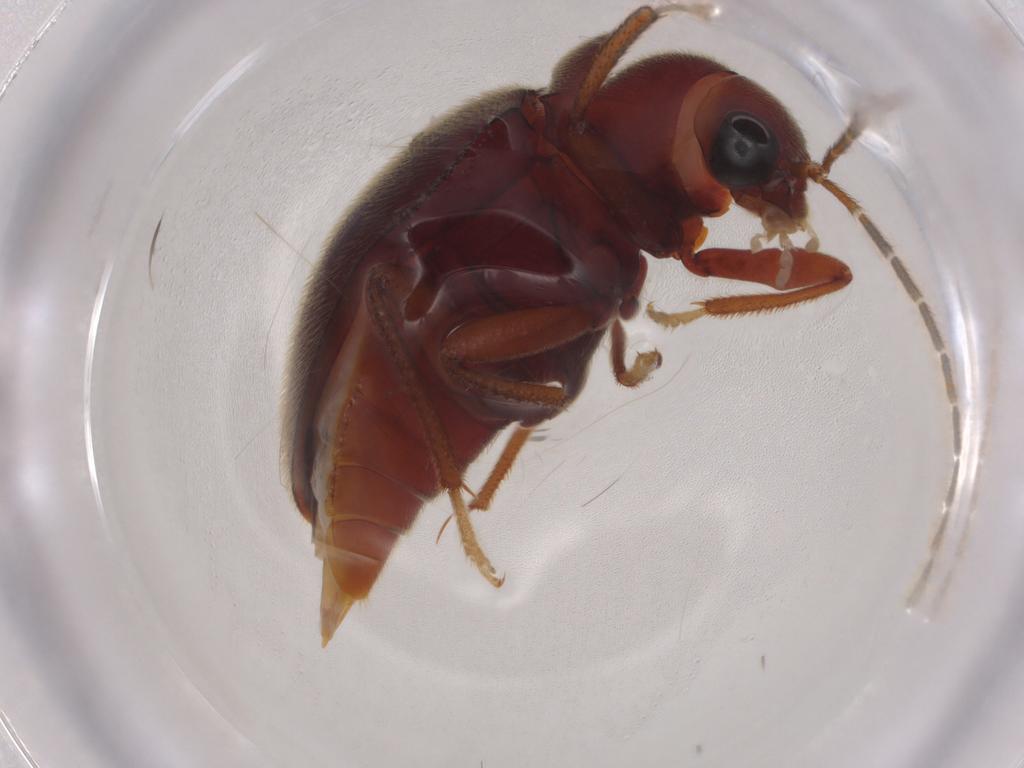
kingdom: Animalia
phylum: Arthropoda
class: Insecta
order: Coleoptera
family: Ptilodactylidae
